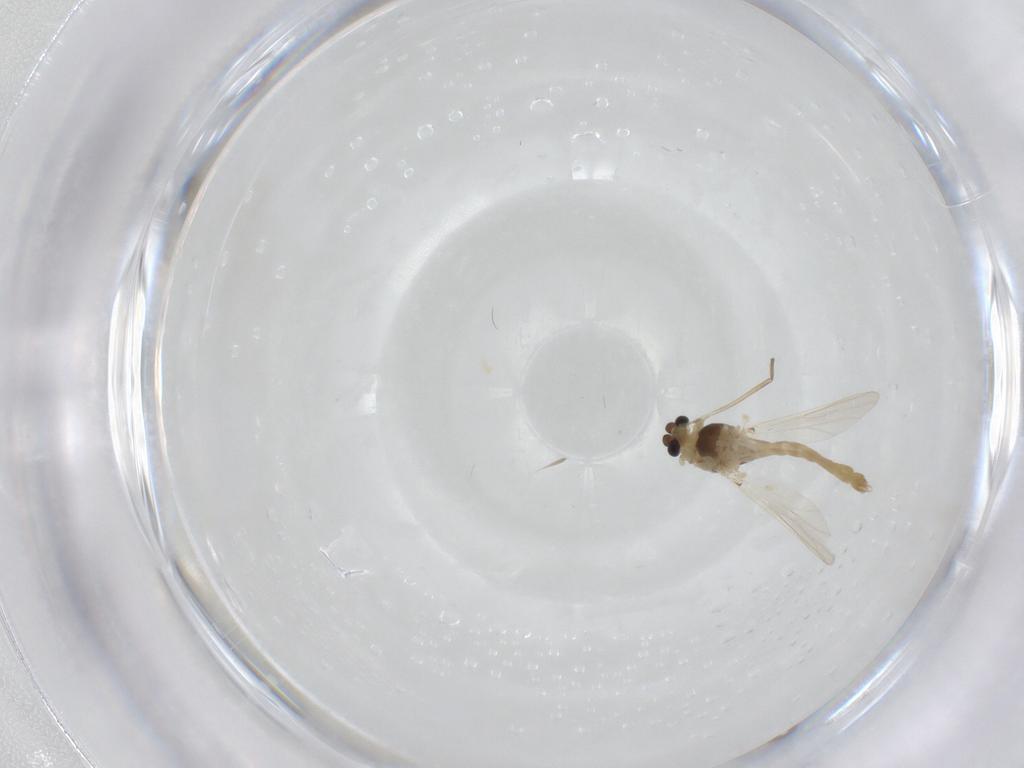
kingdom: Animalia
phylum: Arthropoda
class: Insecta
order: Diptera
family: Chironomidae
